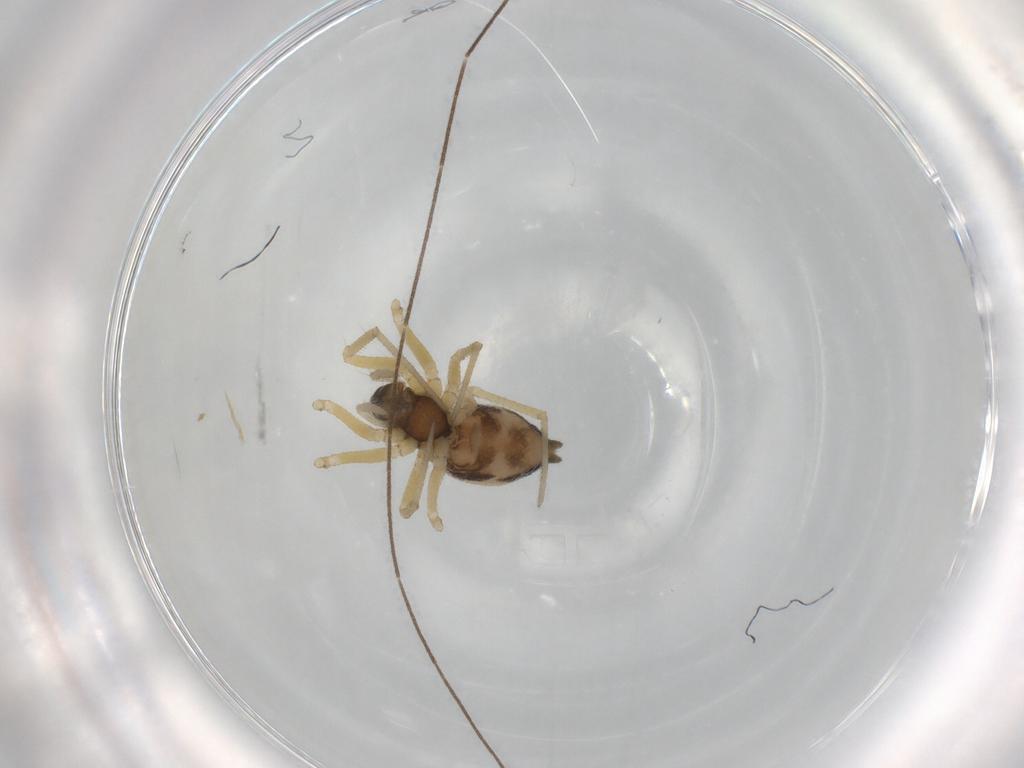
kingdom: Animalia
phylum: Arthropoda
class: Arachnida
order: Araneae
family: Linyphiidae
